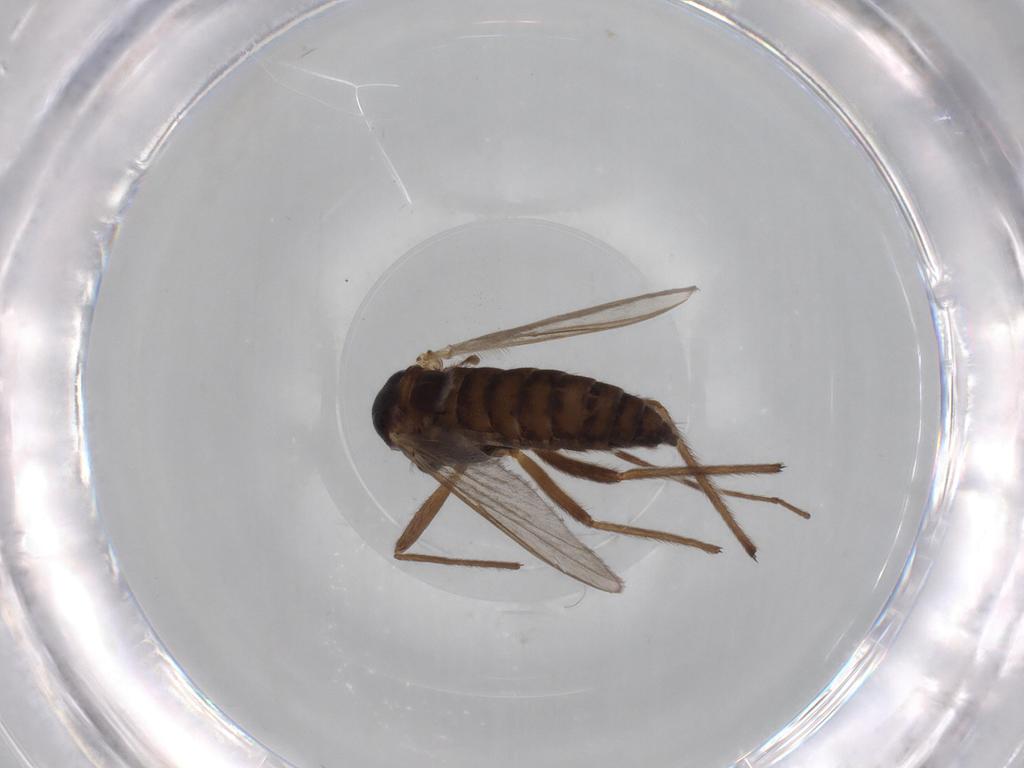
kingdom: Animalia
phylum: Arthropoda
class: Insecta
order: Diptera
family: Chironomidae
